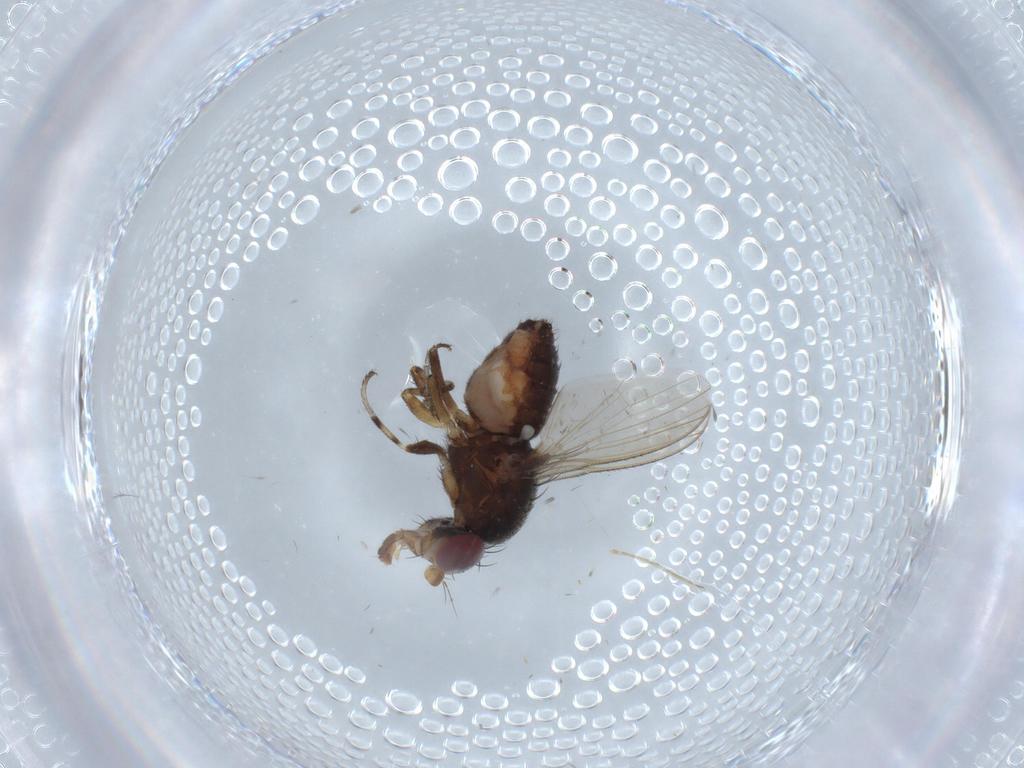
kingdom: Animalia
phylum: Arthropoda
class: Insecta
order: Diptera
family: Heleomyzidae
